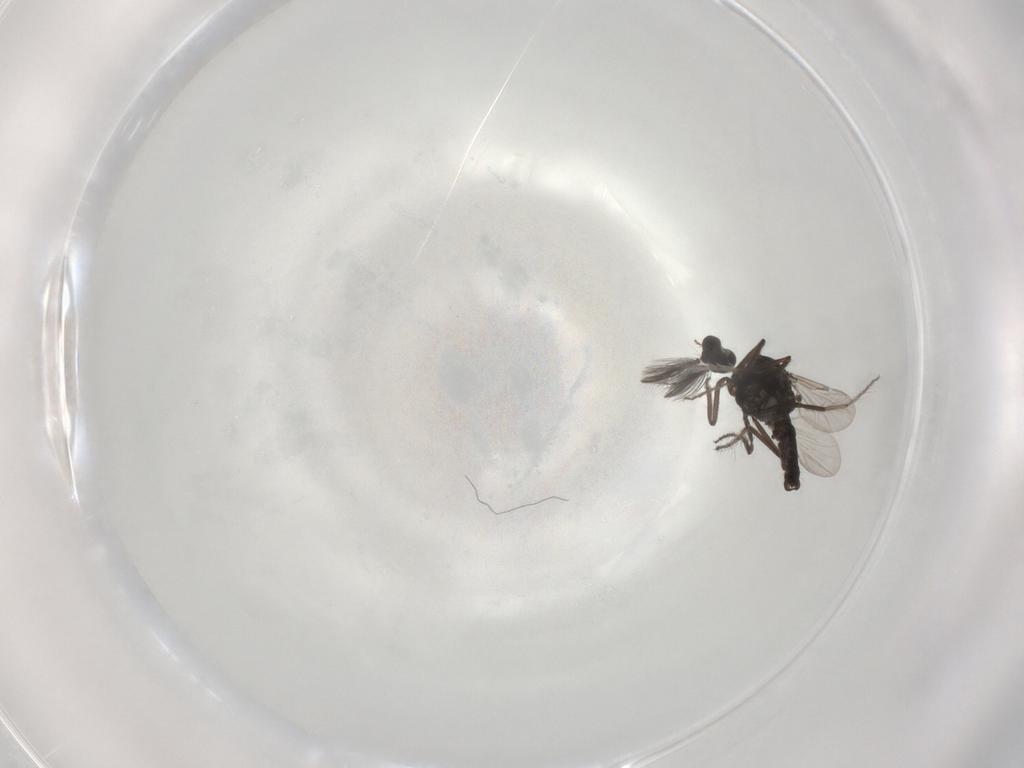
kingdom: Animalia
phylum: Arthropoda
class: Insecta
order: Diptera
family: Ceratopogonidae
